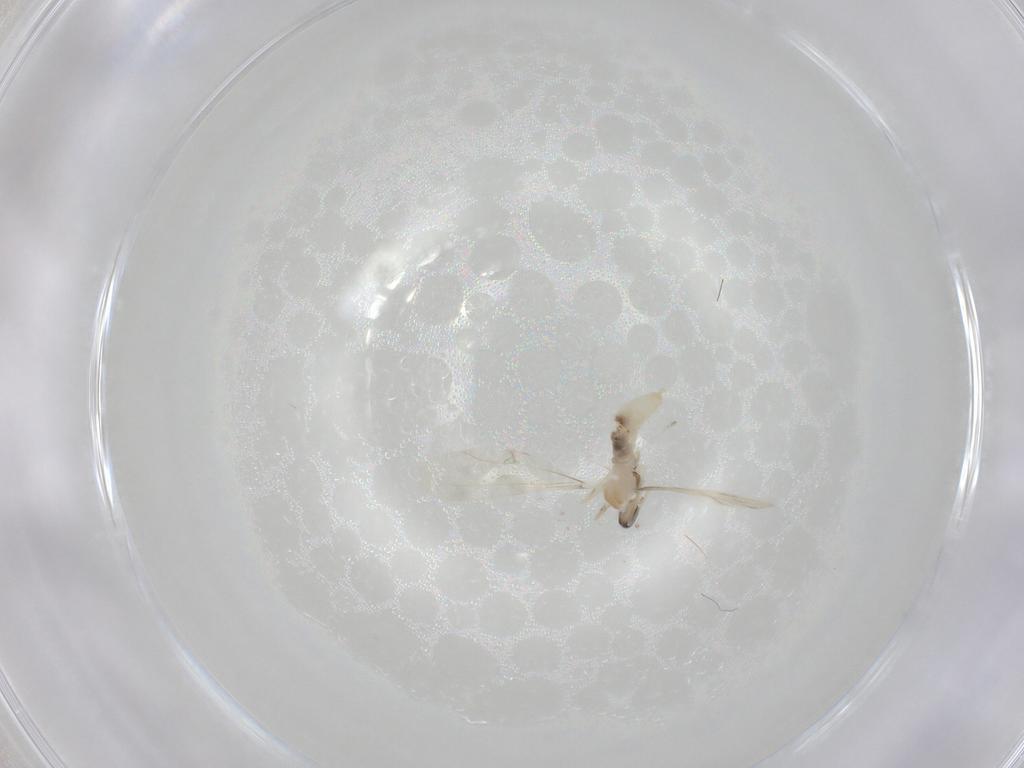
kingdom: Animalia
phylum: Arthropoda
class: Insecta
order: Diptera
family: Cecidomyiidae
